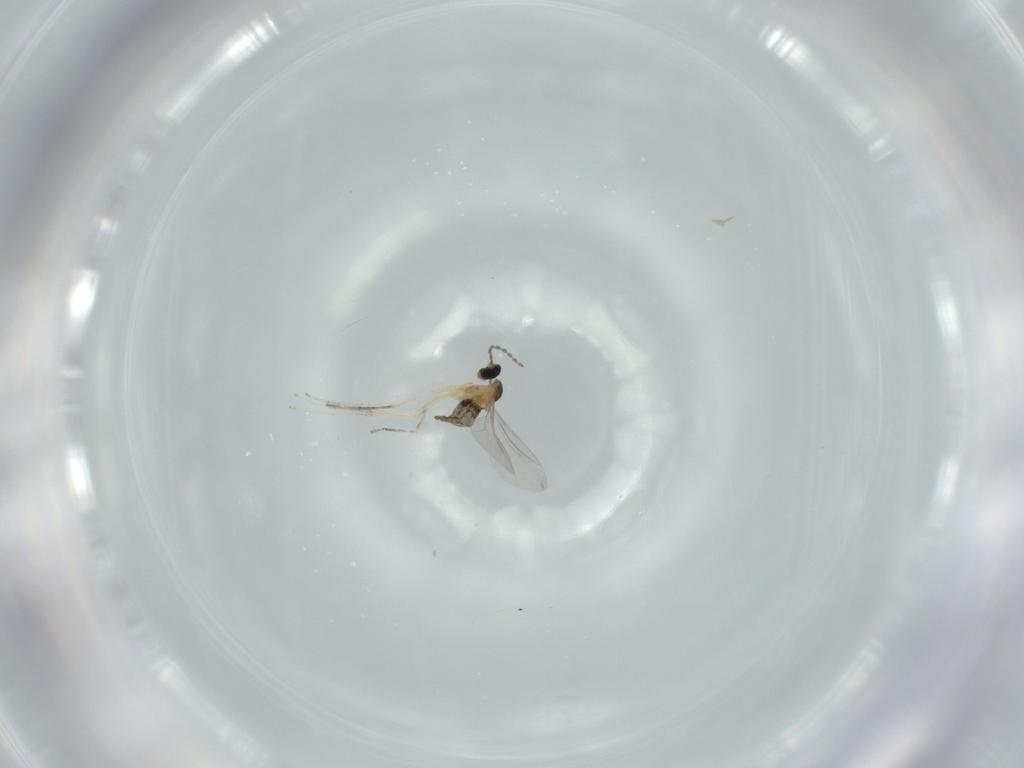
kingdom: Animalia
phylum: Arthropoda
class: Insecta
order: Diptera
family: Cecidomyiidae
